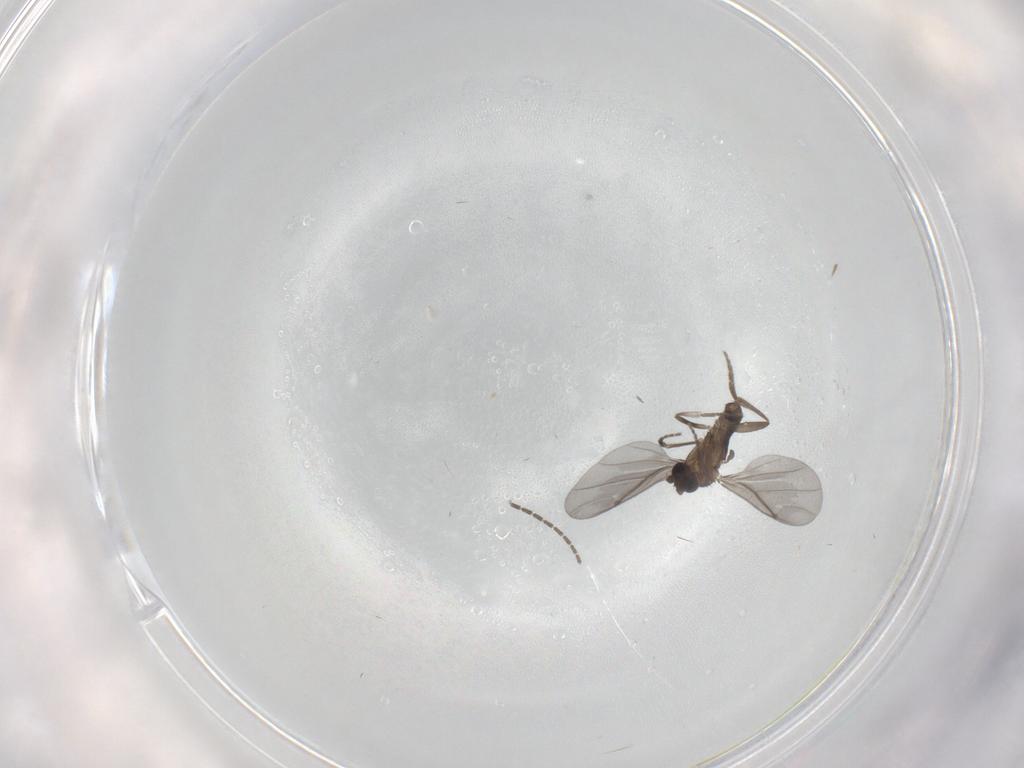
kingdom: Animalia
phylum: Arthropoda
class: Insecta
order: Diptera
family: Sciaridae
